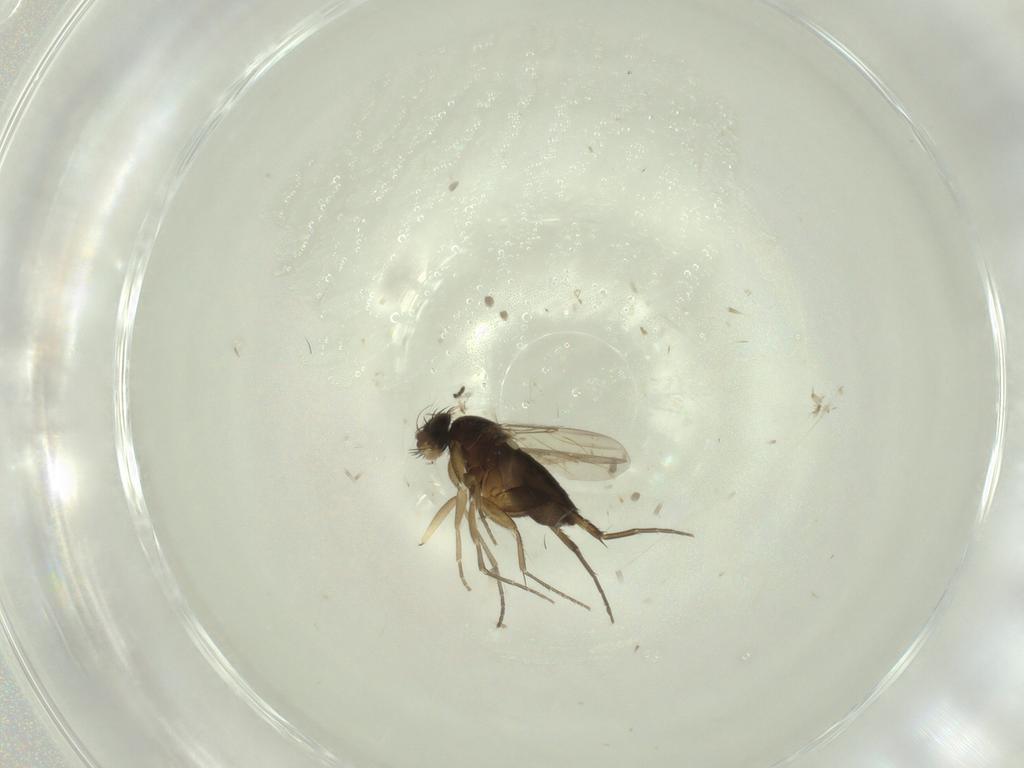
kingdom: Animalia
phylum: Arthropoda
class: Insecta
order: Diptera
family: Phoridae
